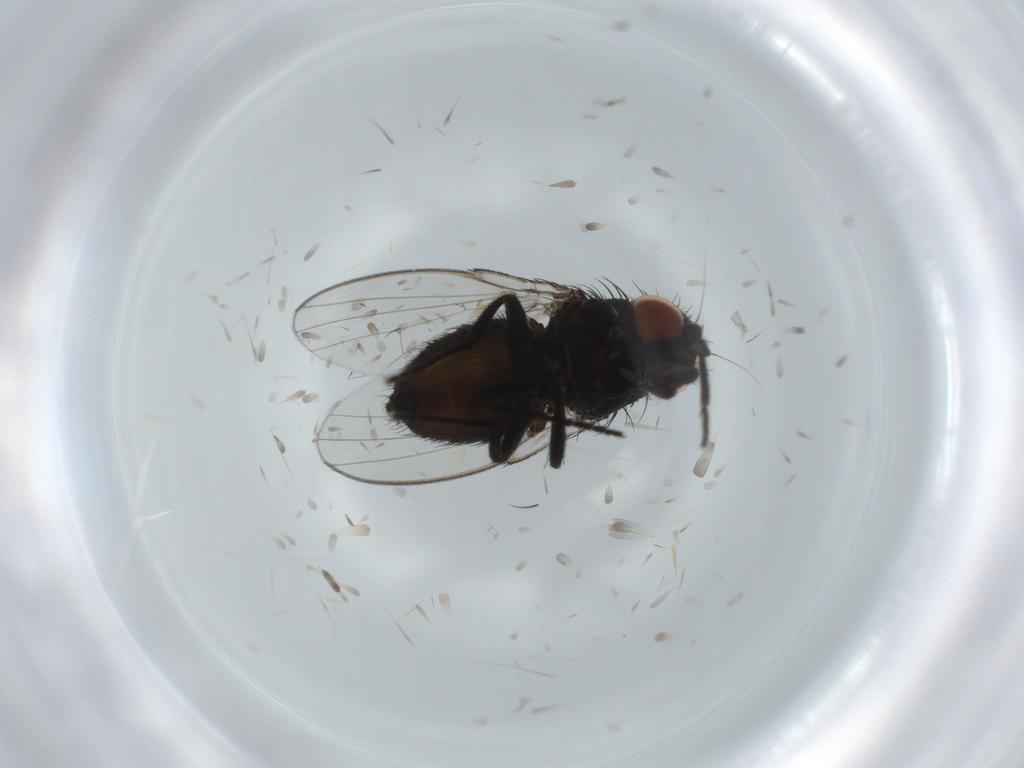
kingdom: Animalia
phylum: Arthropoda
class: Insecta
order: Diptera
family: Milichiidae
